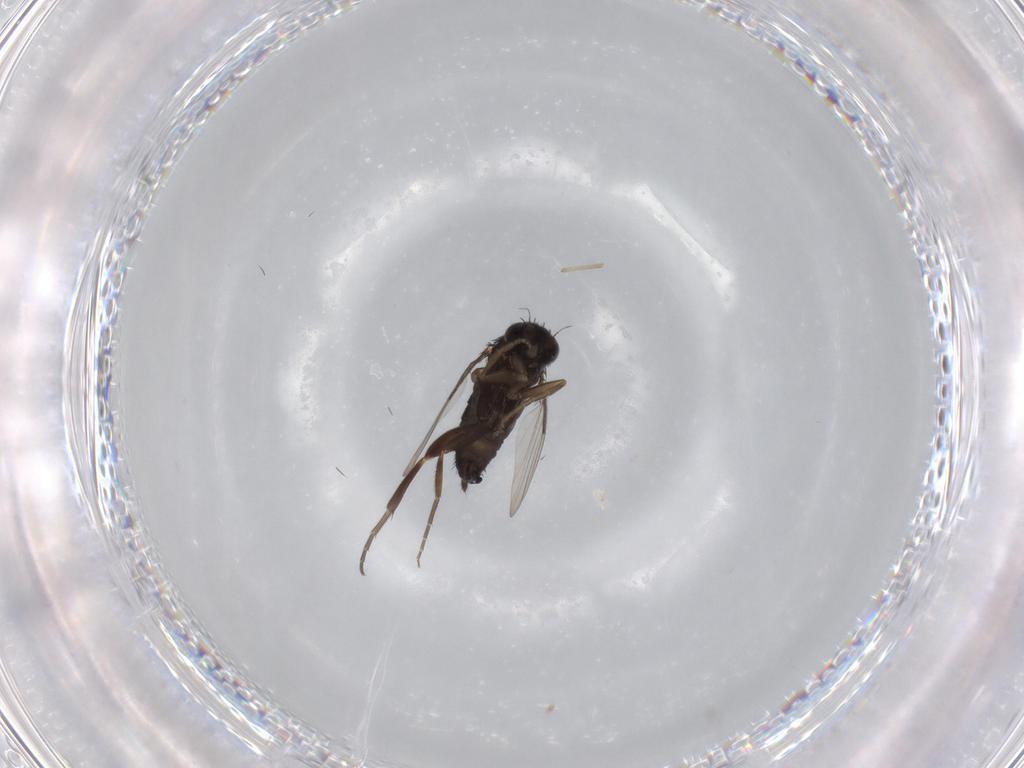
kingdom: Animalia
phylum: Arthropoda
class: Insecta
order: Diptera
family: Phoridae
